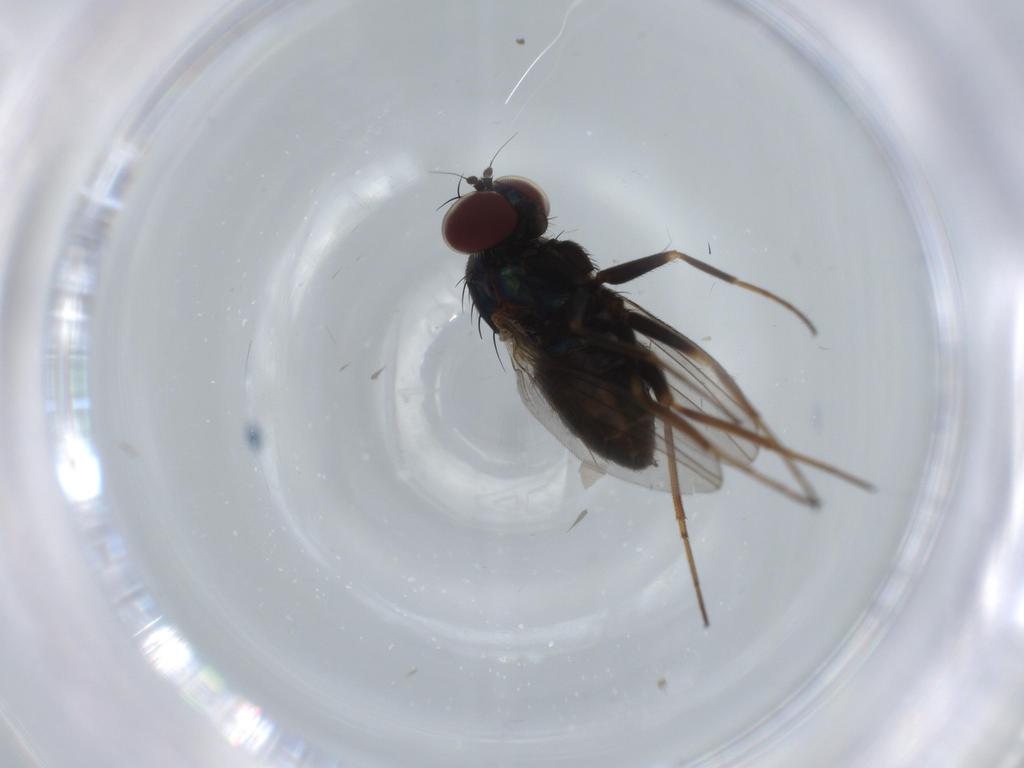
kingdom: Animalia
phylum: Arthropoda
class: Insecta
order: Diptera
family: Dolichopodidae
